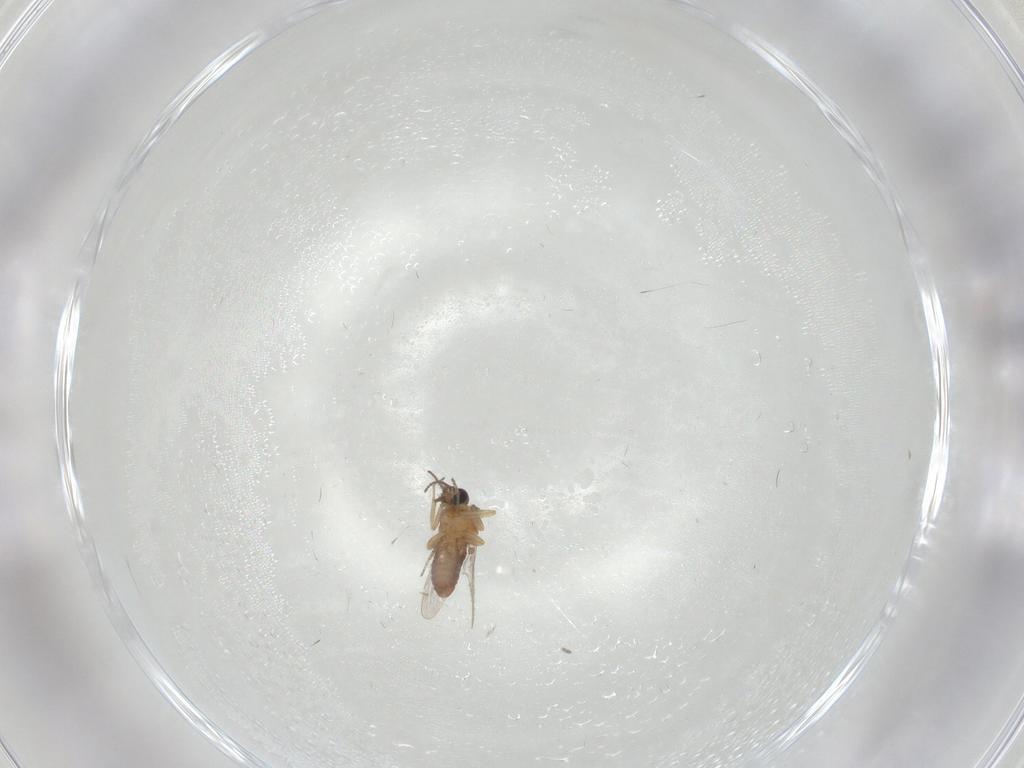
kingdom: Animalia
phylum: Arthropoda
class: Insecta
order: Diptera
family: Ceratopogonidae
